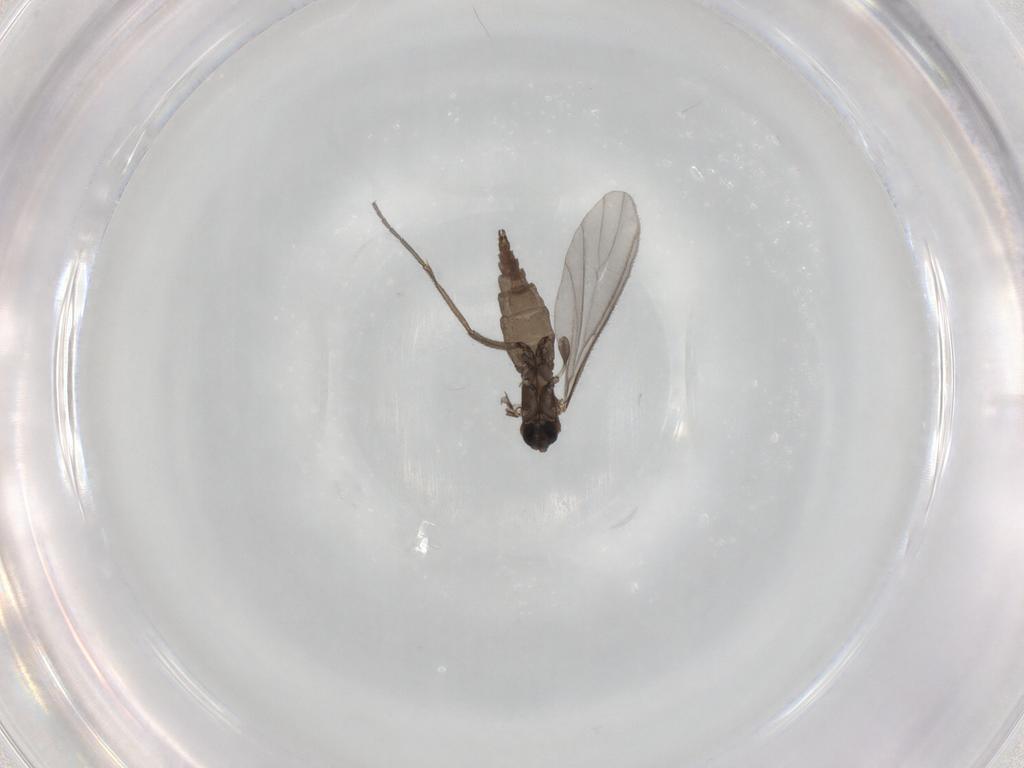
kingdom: Animalia
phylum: Arthropoda
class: Insecta
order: Diptera
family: Sciaridae
